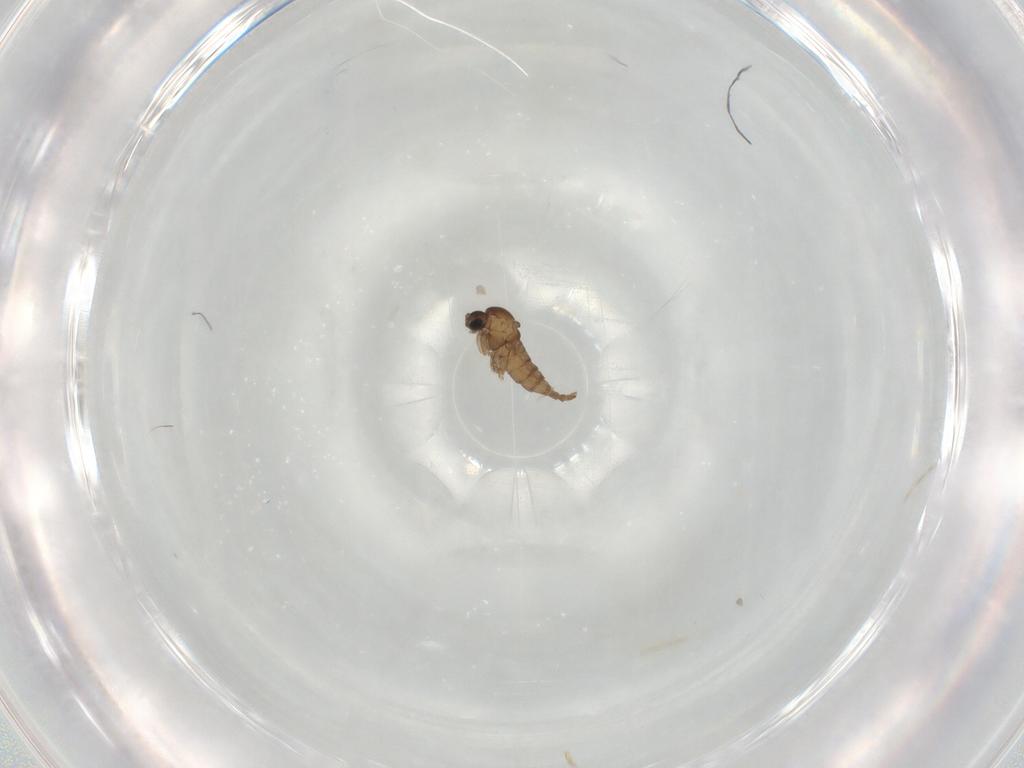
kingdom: Animalia
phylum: Arthropoda
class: Insecta
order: Diptera
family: Sciaridae
